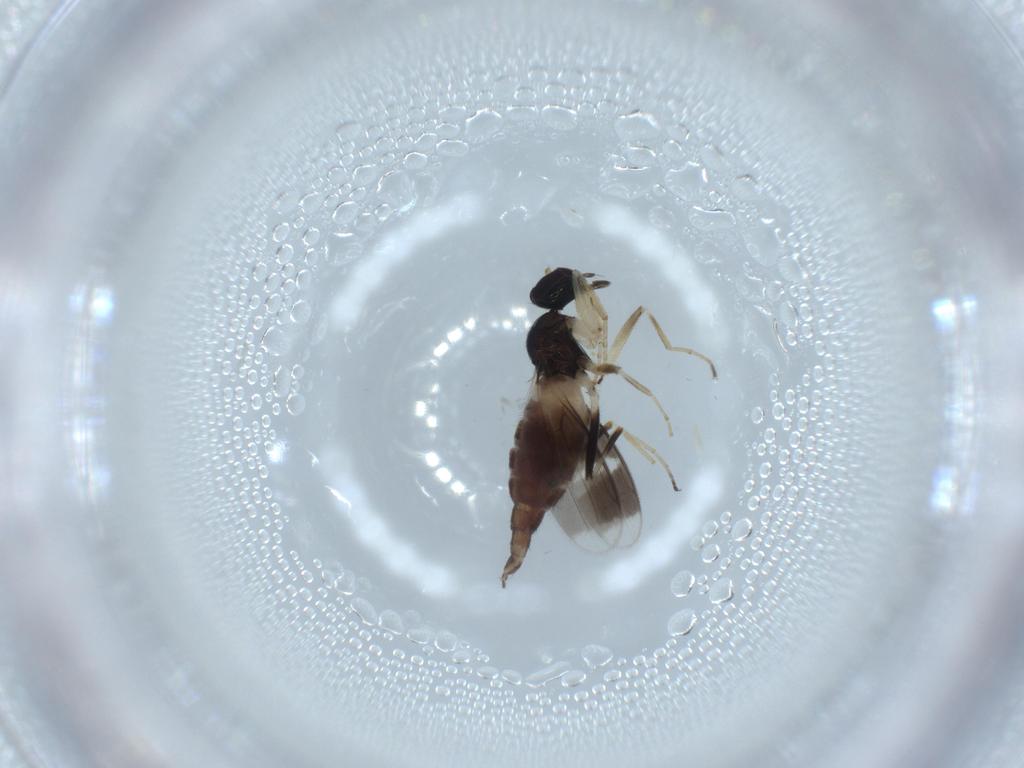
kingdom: Animalia
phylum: Arthropoda
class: Insecta
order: Diptera
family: Hybotidae
